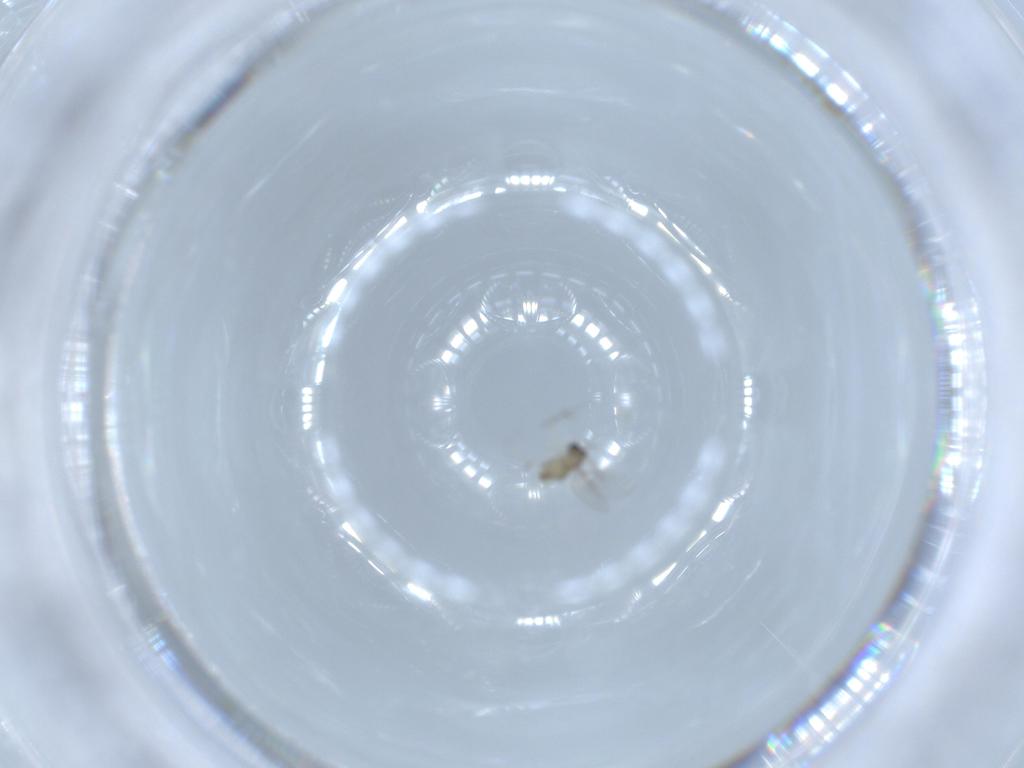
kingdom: Animalia
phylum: Arthropoda
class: Insecta
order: Diptera
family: Cecidomyiidae
